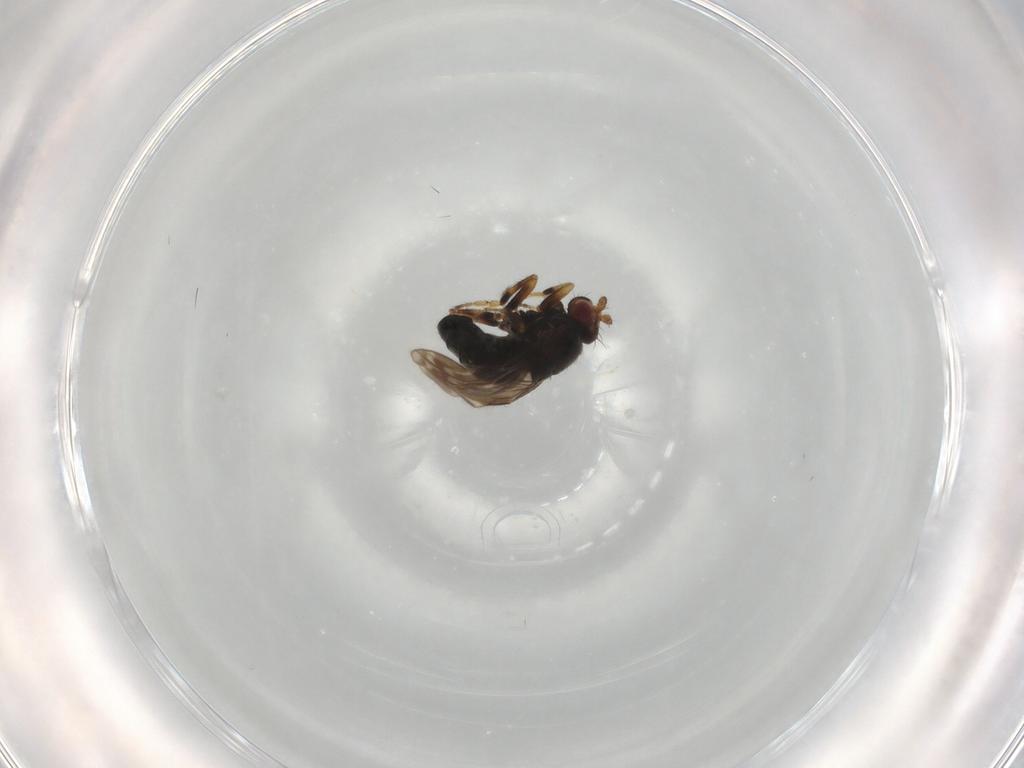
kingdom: Animalia
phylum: Arthropoda
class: Insecta
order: Diptera
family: Sphaeroceridae
